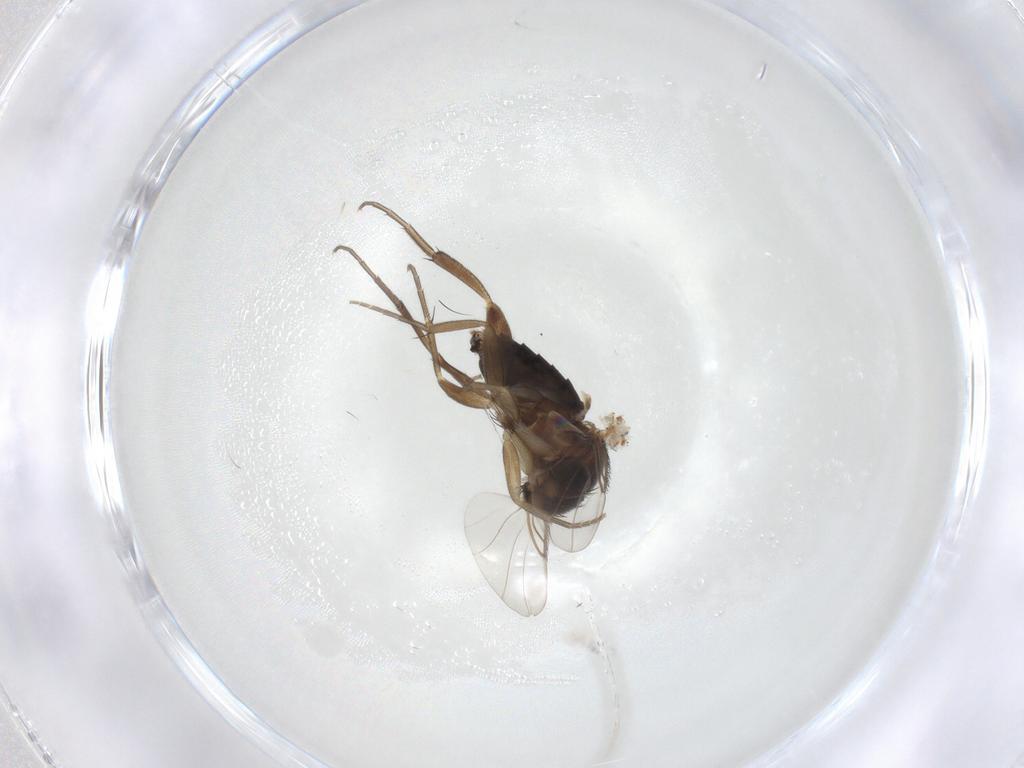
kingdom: Animalia
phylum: Arthropoda
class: Insecta
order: Diptera
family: Phoridae
